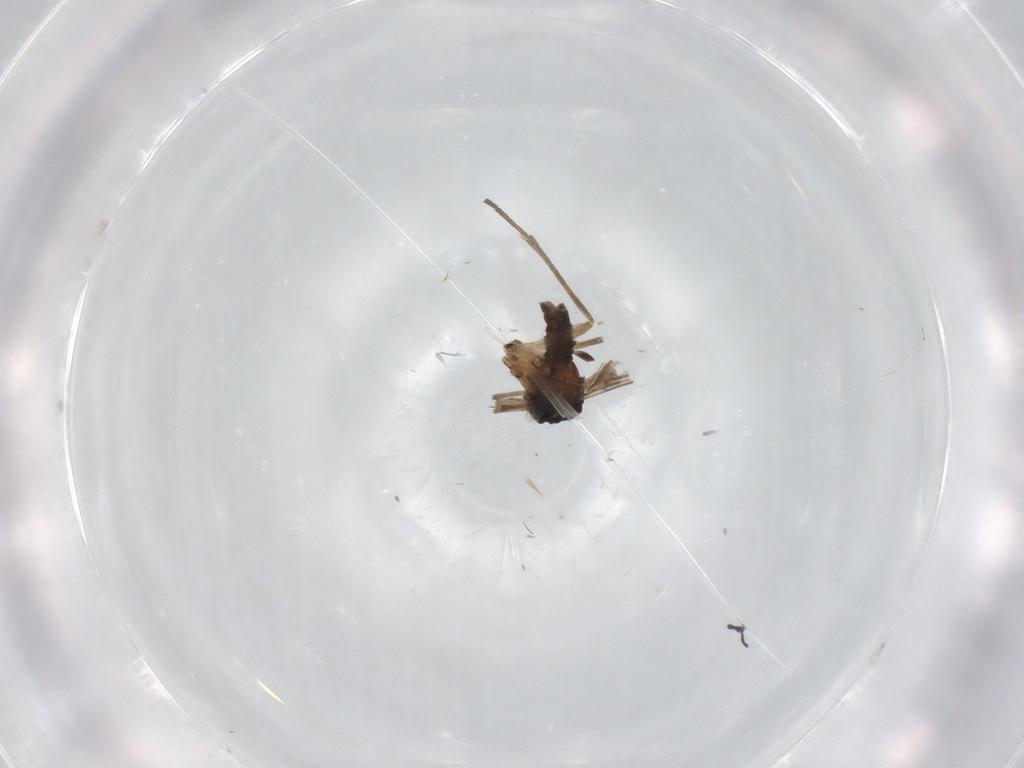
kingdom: Animalia
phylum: Arthropoda
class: Insecta
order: Diptera
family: Sciaridae
